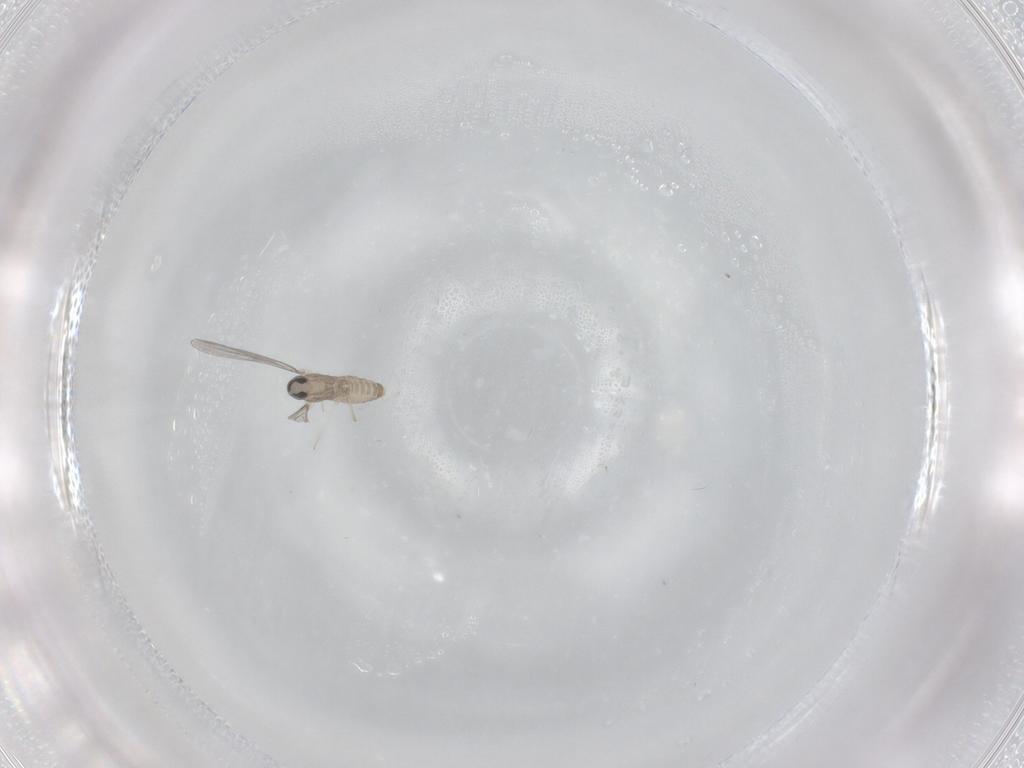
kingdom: Animalia
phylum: Arthropoda
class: Insecta
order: Diptera
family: Cecidomyiidae
